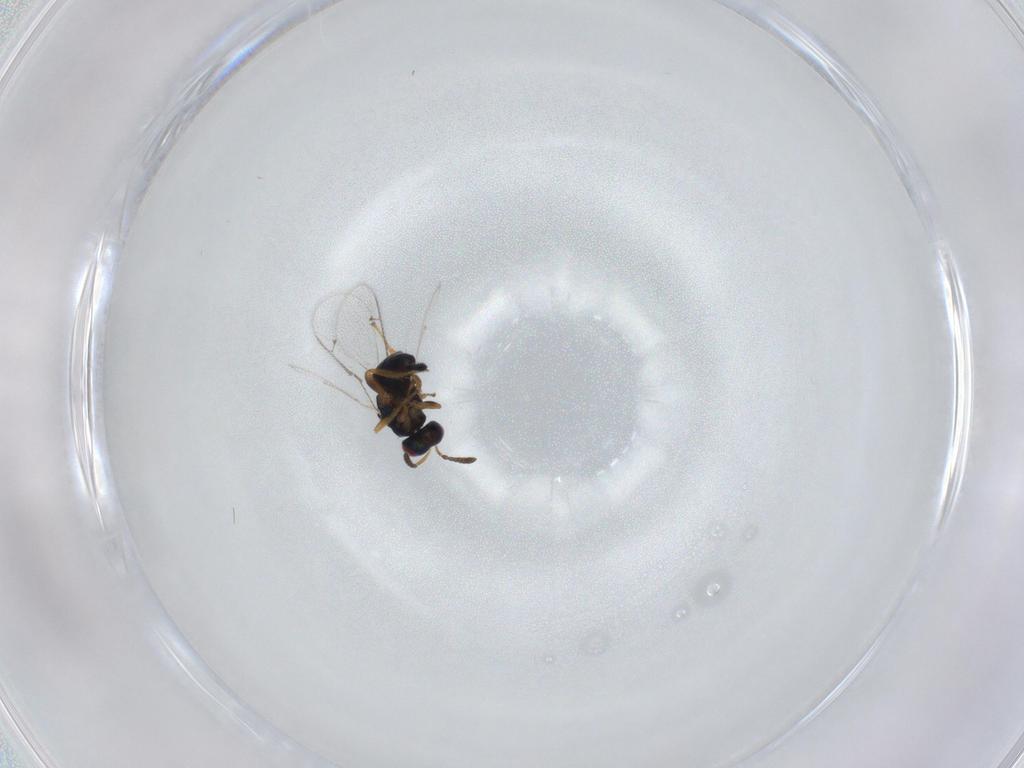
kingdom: Animalia
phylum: Arthropoda
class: Insecta
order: Hymenoptera
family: Torymidae
